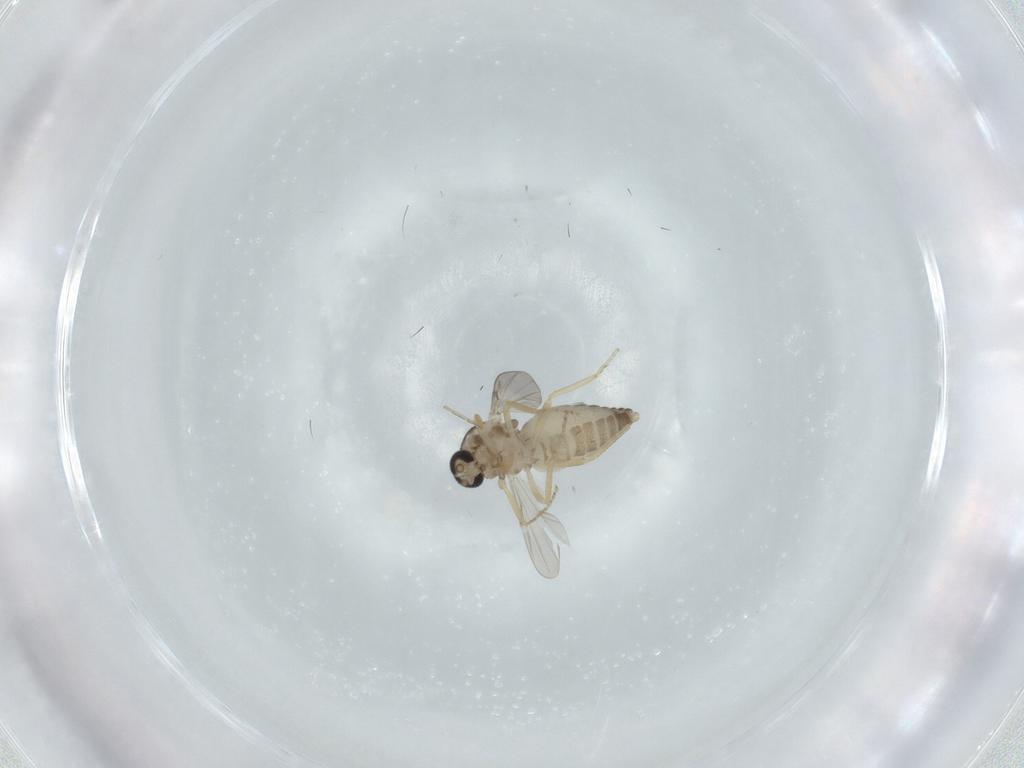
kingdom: Animalia
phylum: Arthropoda
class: Insecta
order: Diptera
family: Ceratopogonidae
